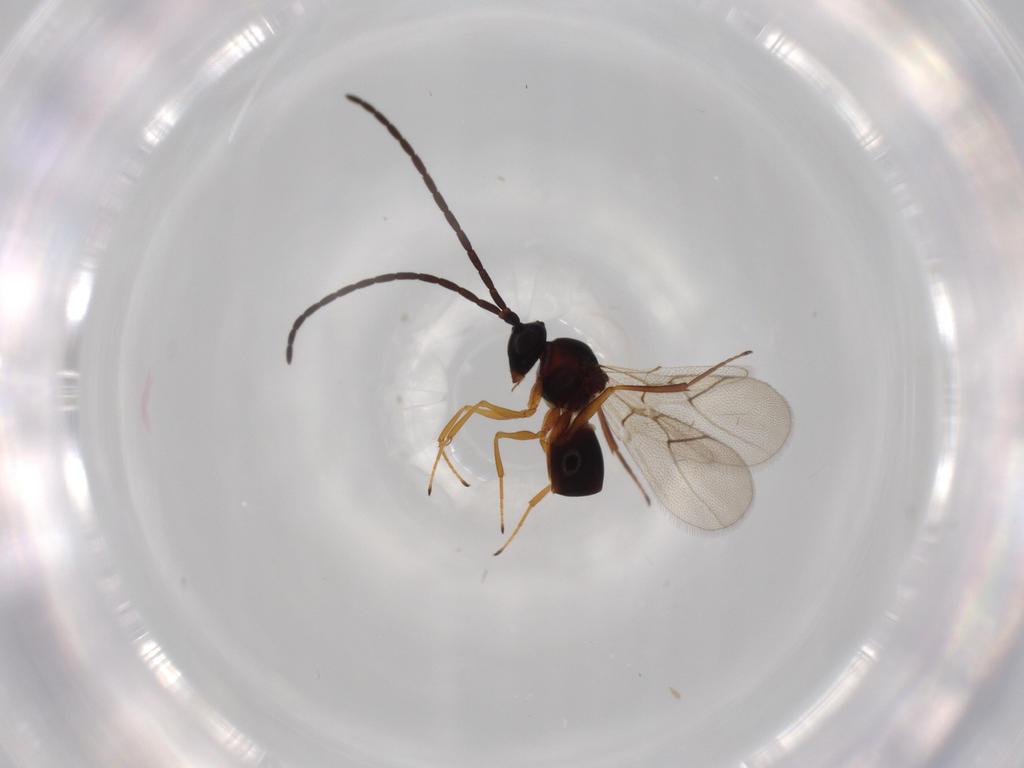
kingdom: Animalia
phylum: Arthropoda
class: Insecta
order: Hymenoptera
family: Figitidae
